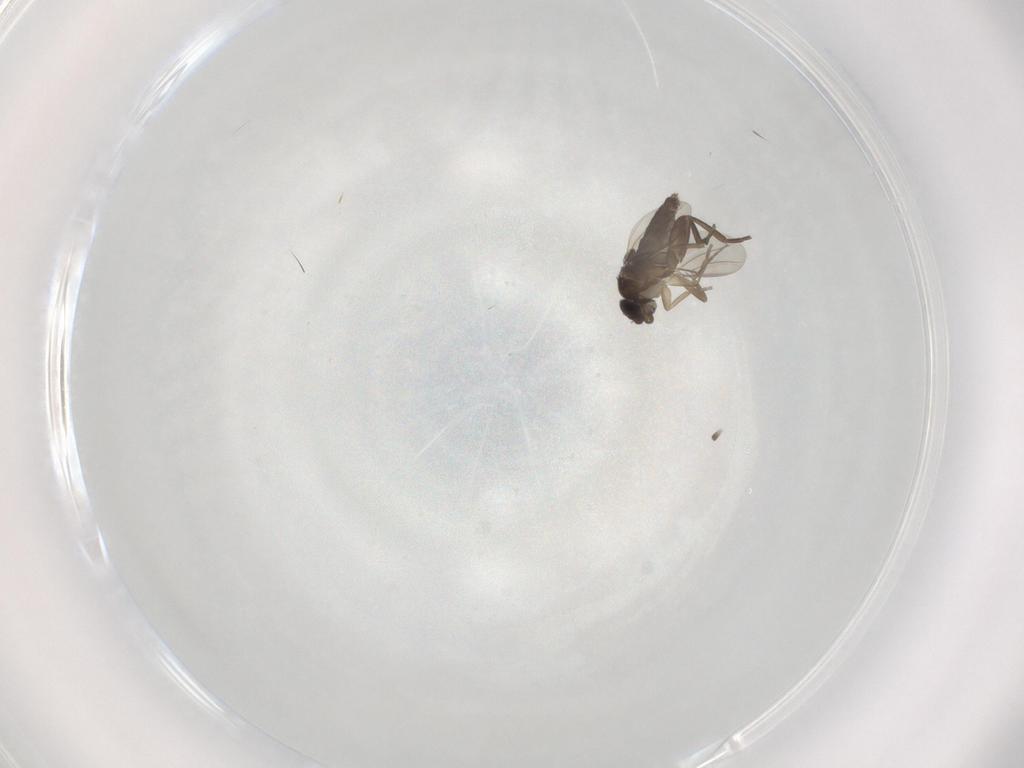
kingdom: Animalia
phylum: Arthropoda
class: Insecta
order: Diptera
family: Phoridae
